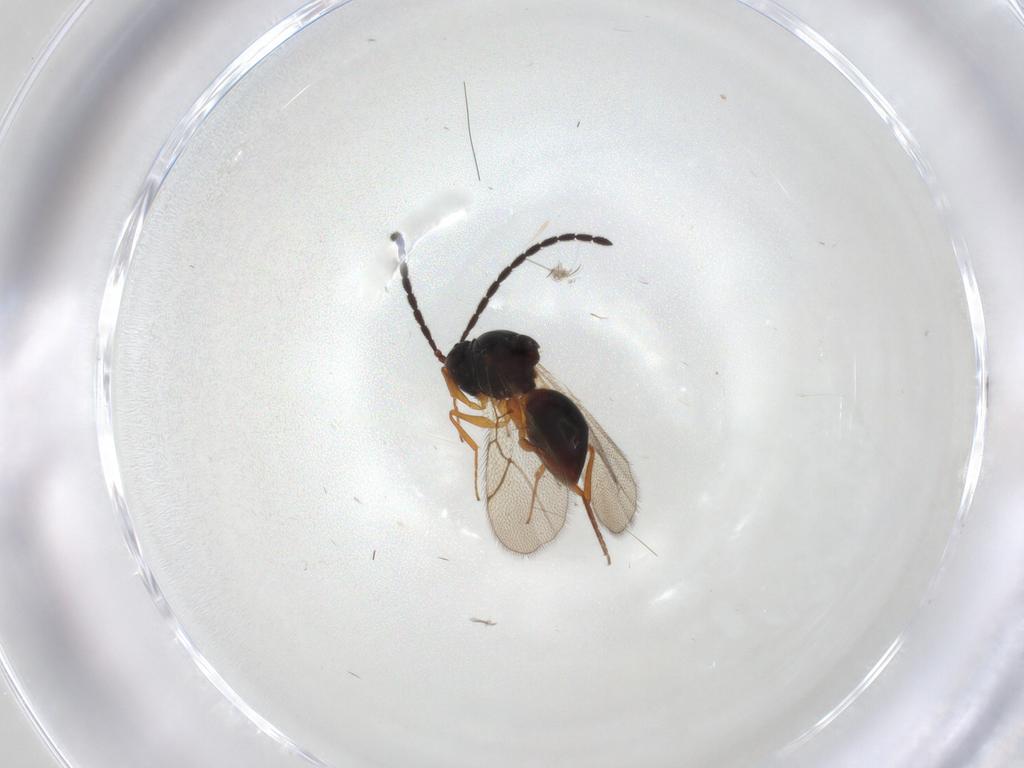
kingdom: Animalia
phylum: Arthropoda
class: Insecta
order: Hymenoptera
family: Figitidae
